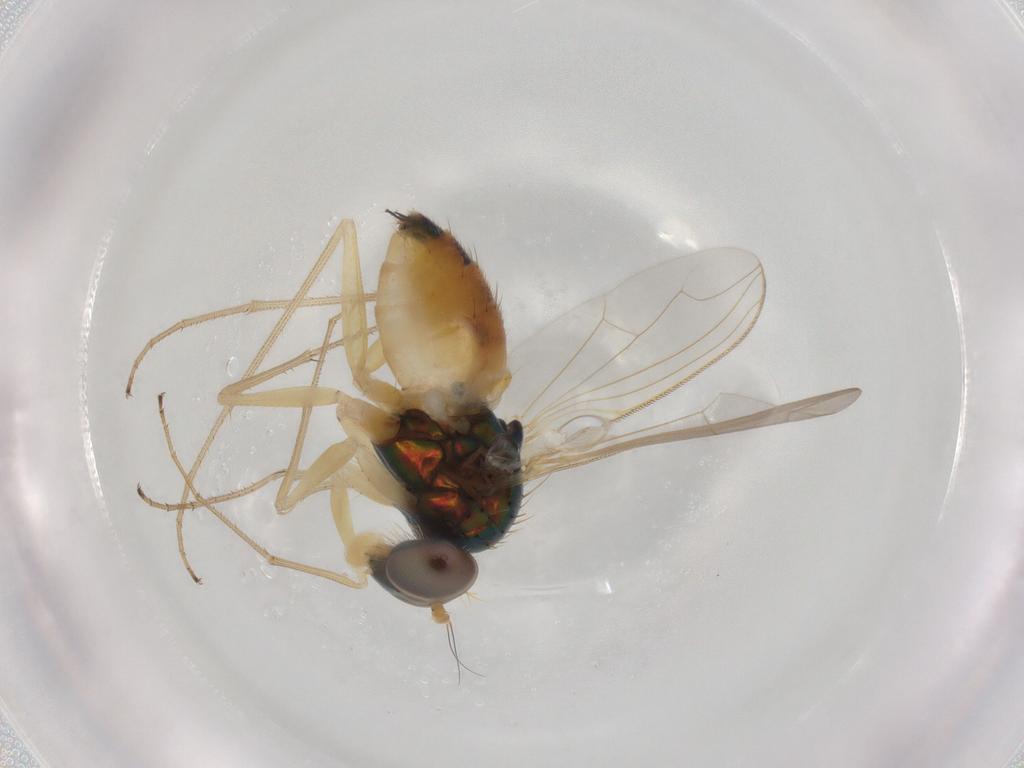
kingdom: Animalia
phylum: Arthropoda
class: Insecta
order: Diptera
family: Dolichopodidae
